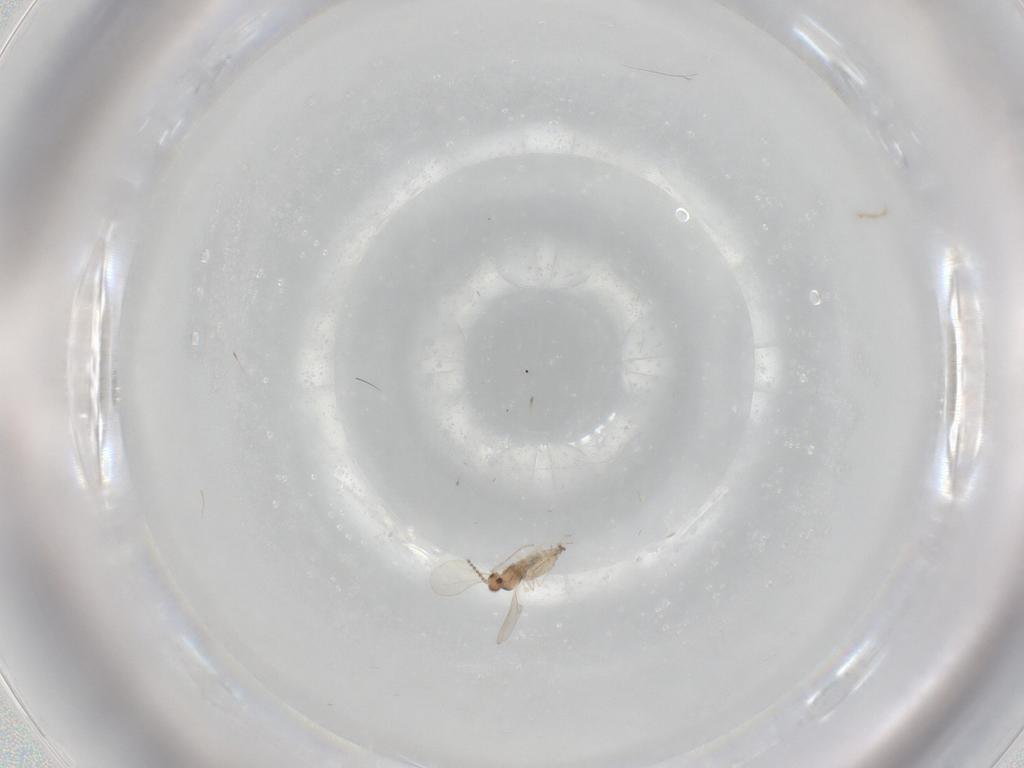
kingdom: Animalia
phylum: Arthropoda
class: Insecta
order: Diptera
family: Cecidomyiidae
